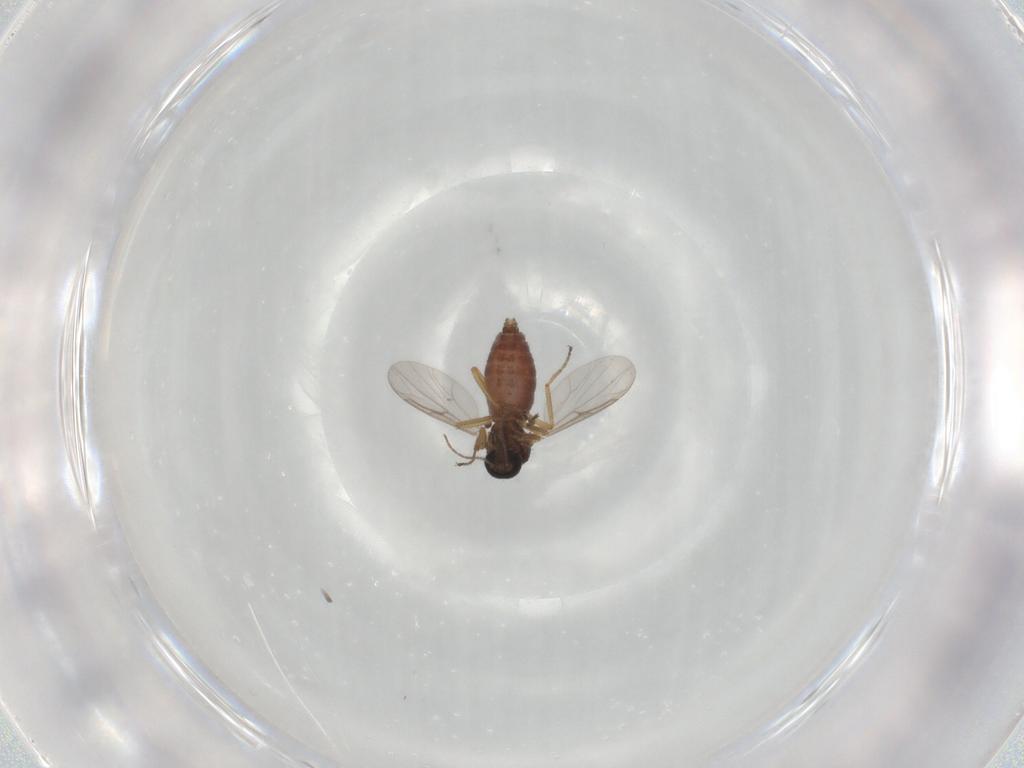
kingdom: Animalia
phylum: Arthropoda
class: Insecta
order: Diptera
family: Ceratopogonidae
